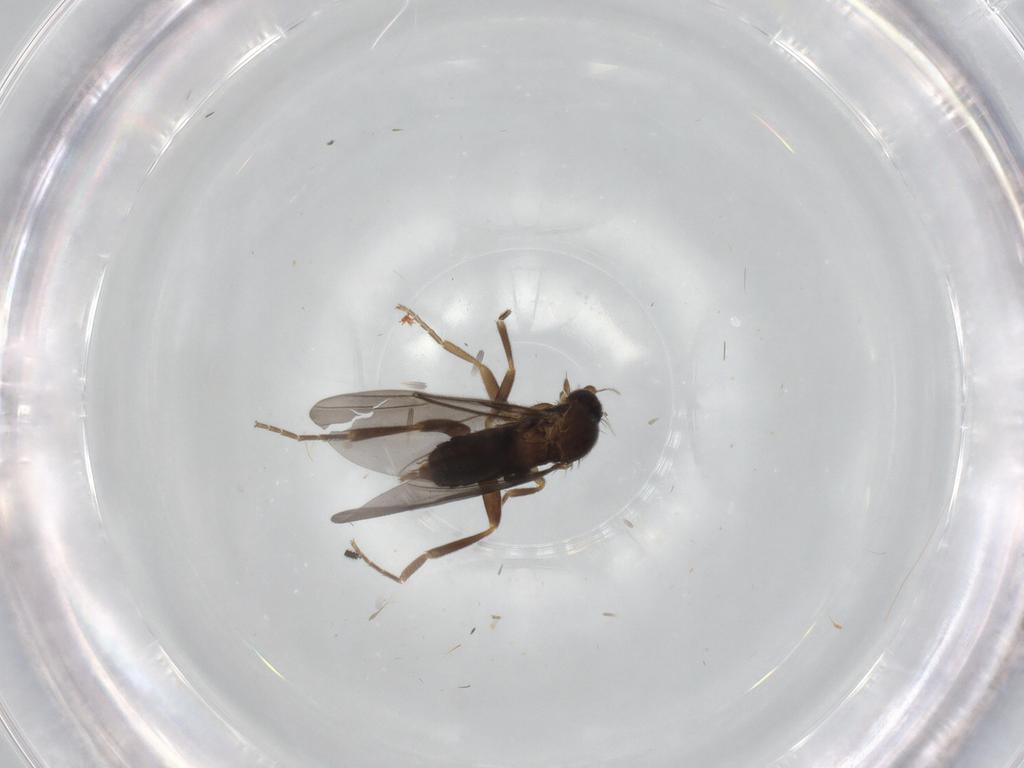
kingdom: Animalia
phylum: Arthropoda
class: Insecta
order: Diptera
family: Phoridae
